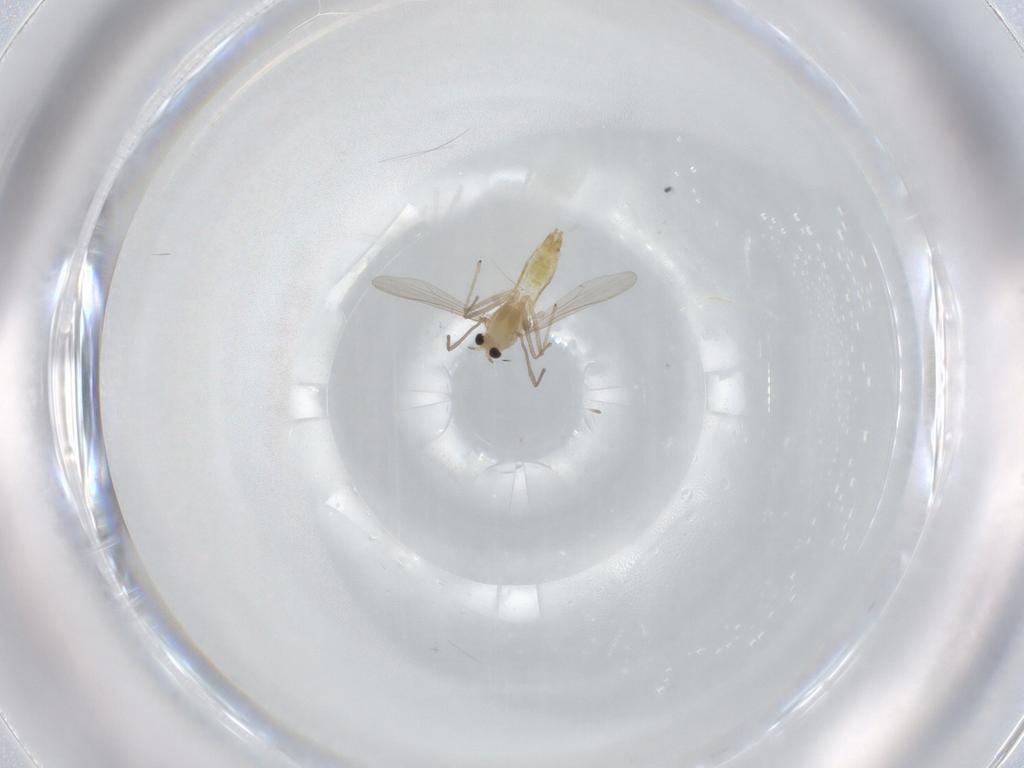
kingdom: Animalia
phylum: Arthropoda
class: Insecta
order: Diptera
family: Chironomidae
